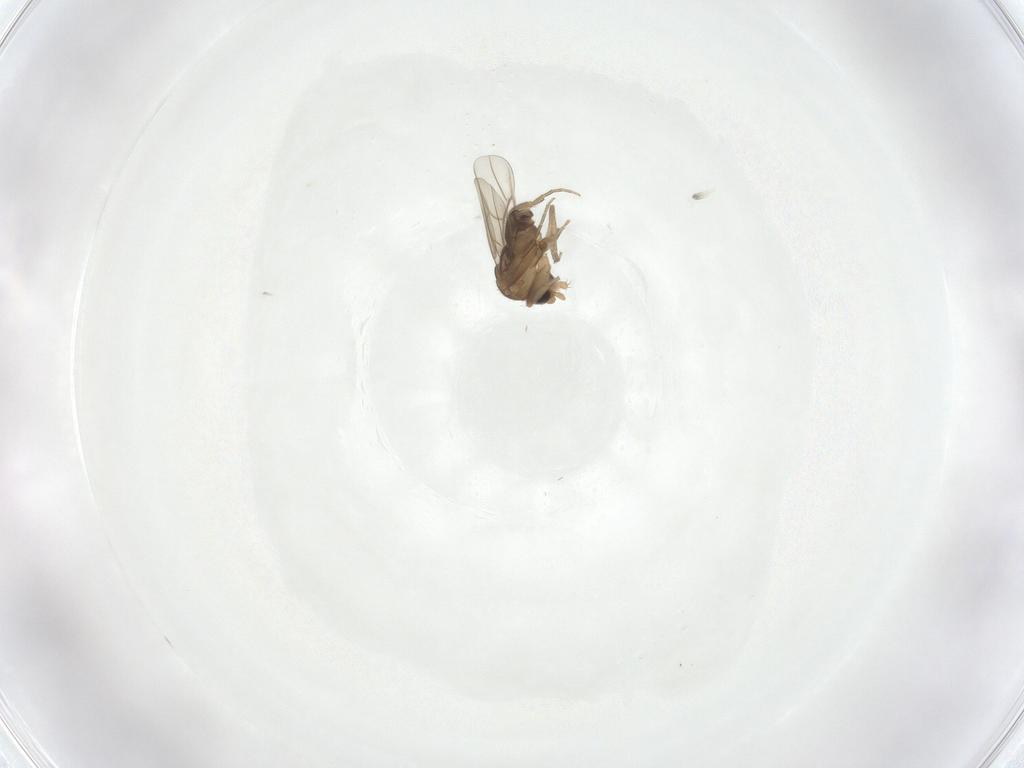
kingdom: Animalia
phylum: Arthropoda
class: Insecta
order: Diptera
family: Phoridae
